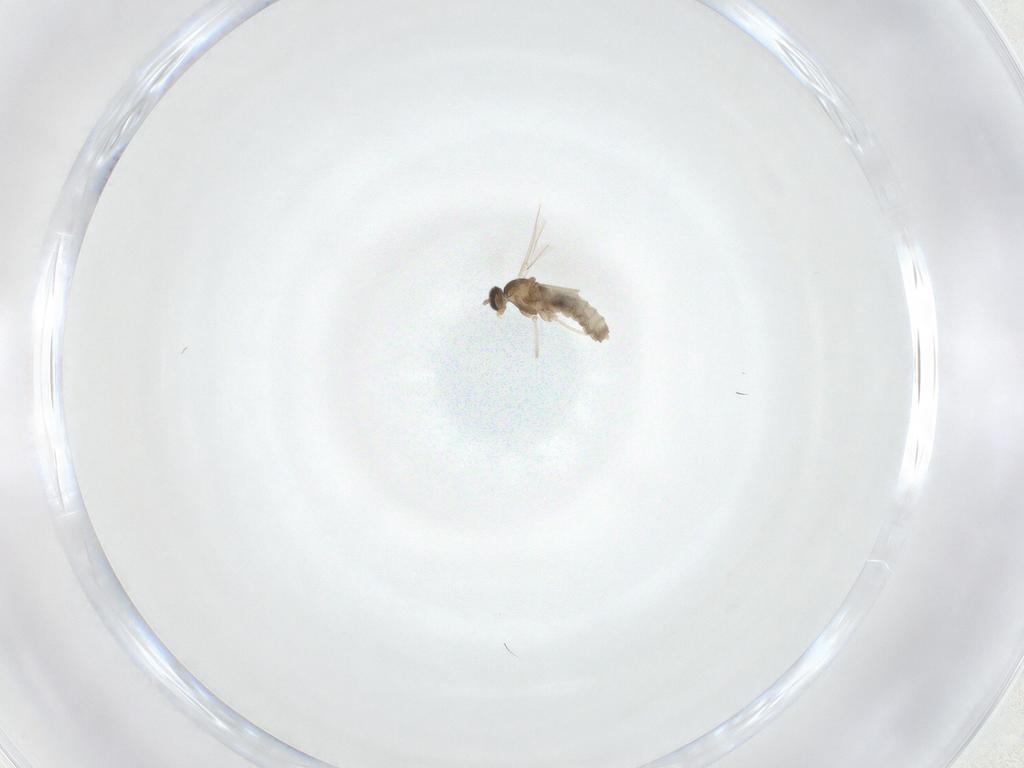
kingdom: Animalia
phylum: Arthropoda
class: Insecta
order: Diptera
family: Cecidomyiidae
